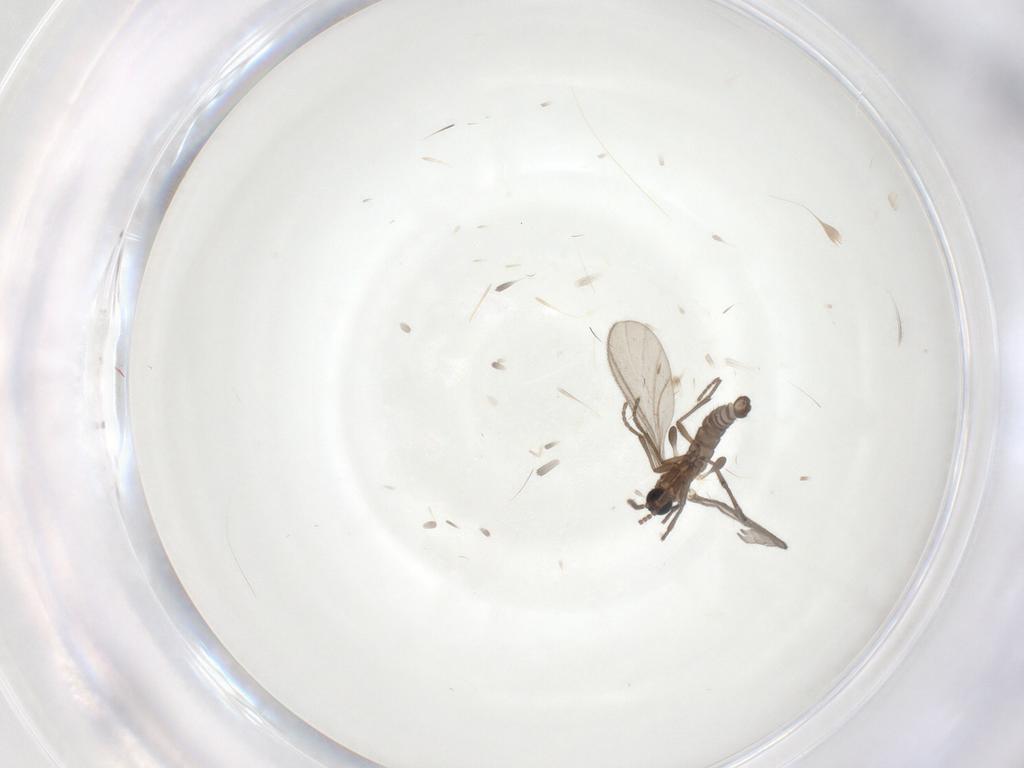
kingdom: Animalia
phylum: Arthropoda
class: Insecta
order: Diptera
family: Sciaridae
